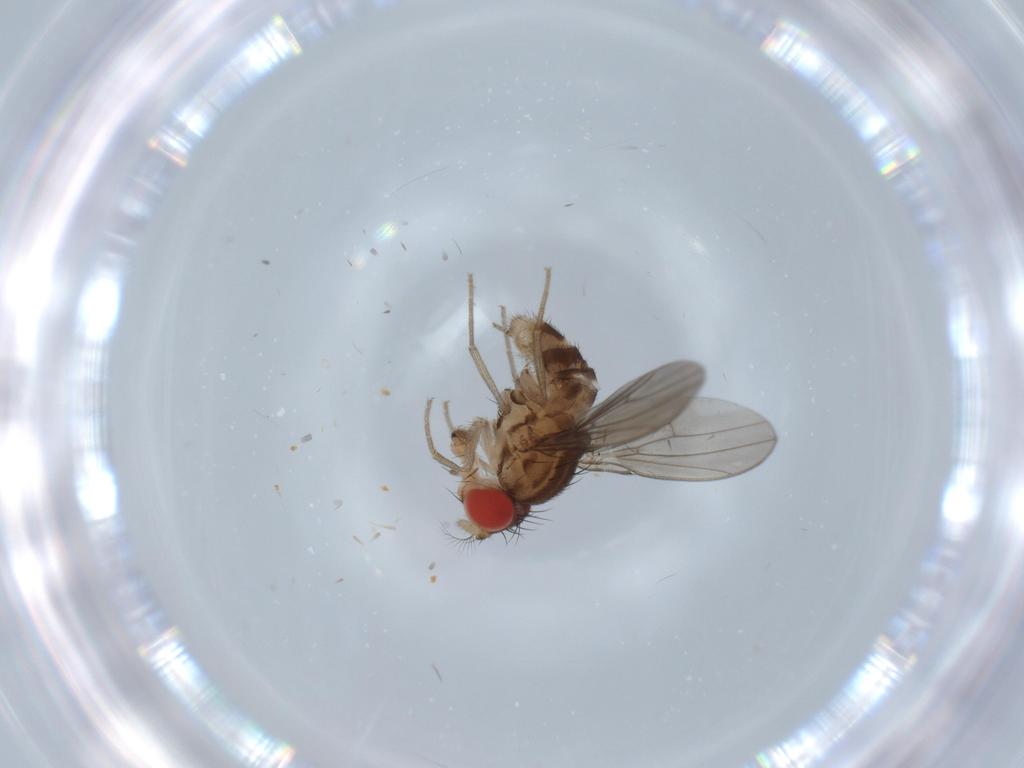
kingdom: Animalia
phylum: Arthropoda
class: Insecta
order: Diptera
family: Drosophilidae
